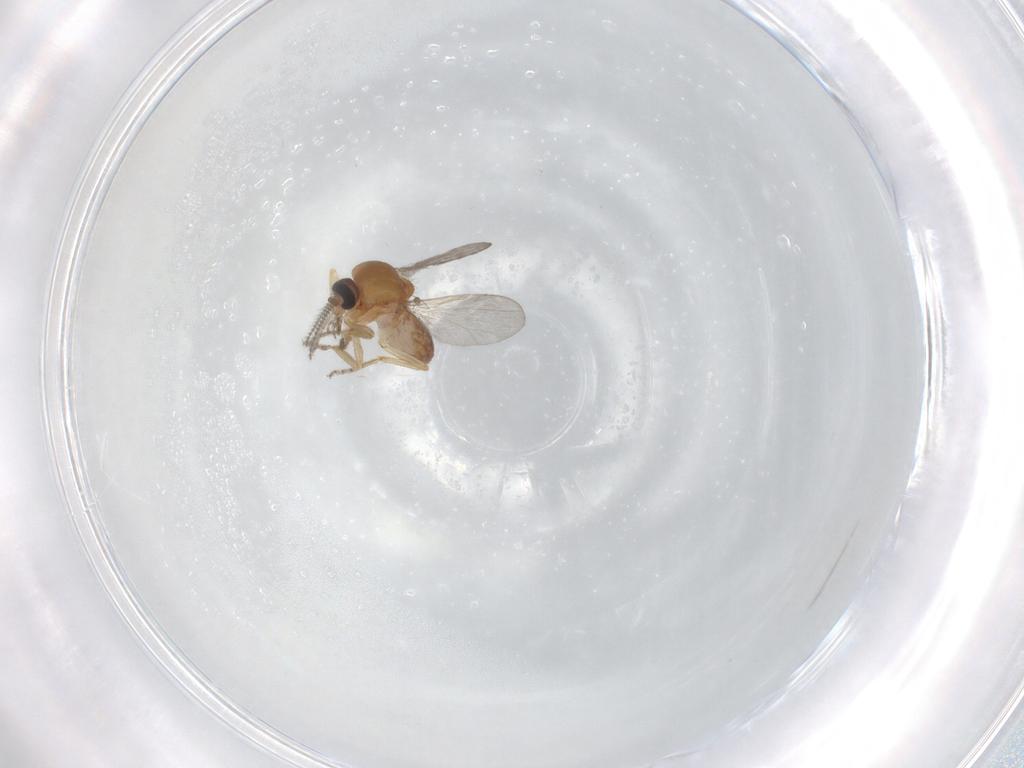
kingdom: Animalia
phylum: Arthropoda
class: Insecta
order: Diptera
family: Ceratopogonidae
